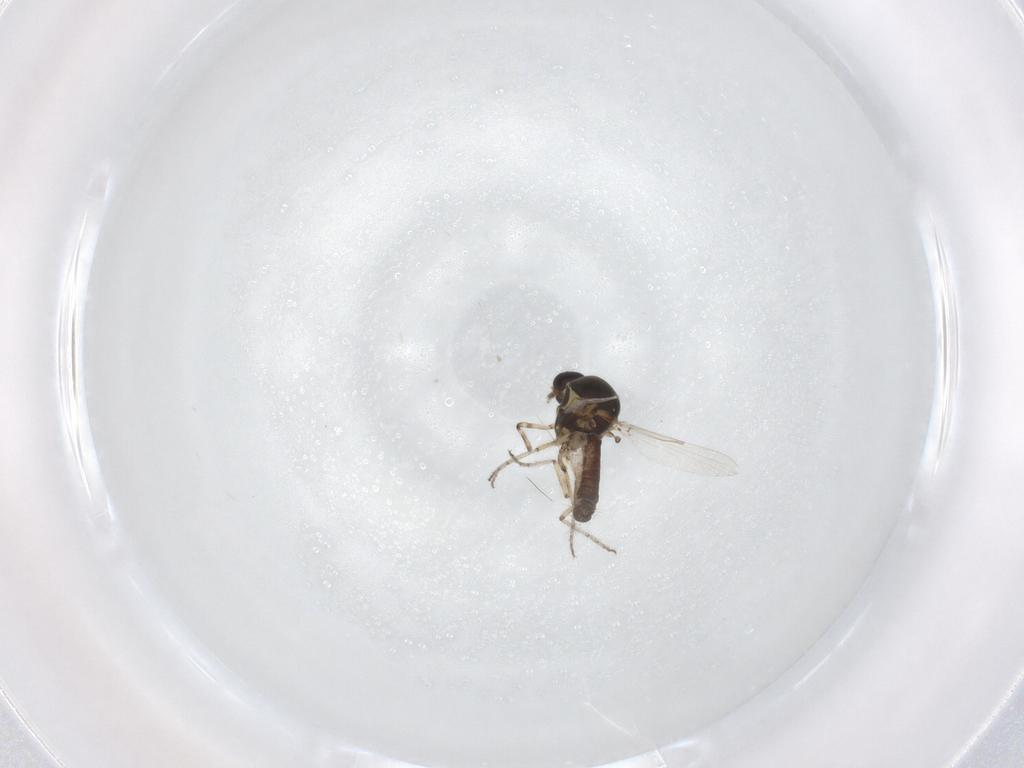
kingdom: Animalia
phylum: Arthropoda
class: Insecta
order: Diptera
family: Ceratopogonidae
